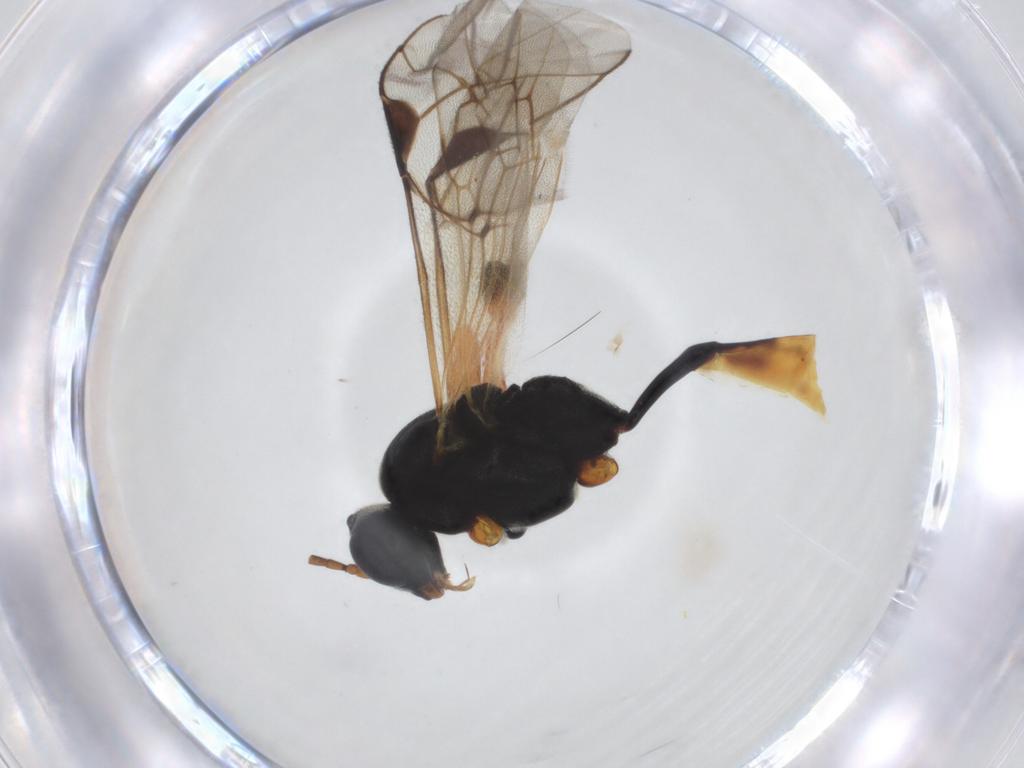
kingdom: Animalia
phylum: Arthropoda
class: Insecta
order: Hymenoptera
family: Ichneumonidae
